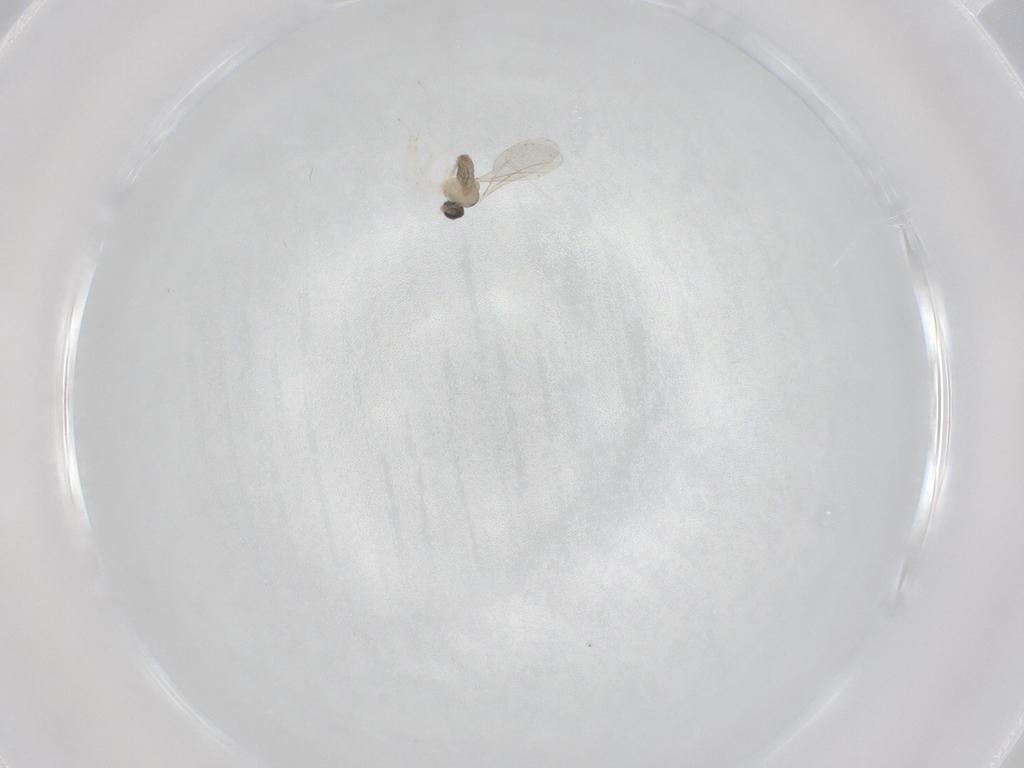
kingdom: Animalia
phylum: Arthropoda
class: Insecta
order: Diptera
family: Cecidomyiidae
